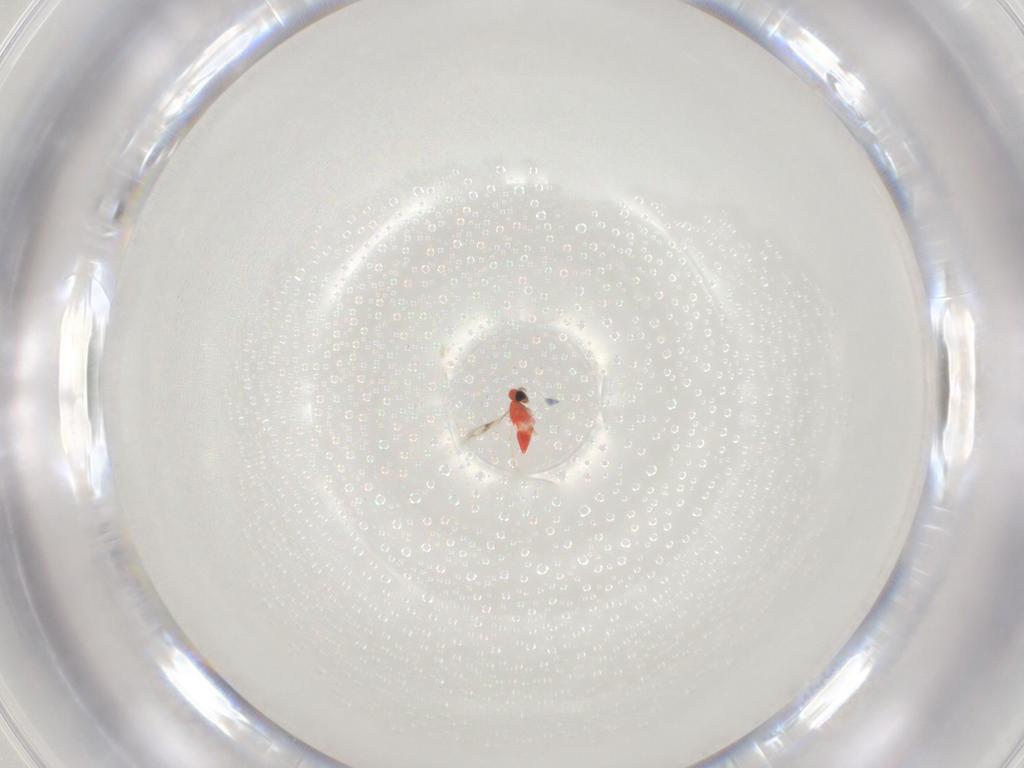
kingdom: Animalia
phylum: Arthropoda
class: Insecta
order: Hymenoptera
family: Trichogrammatidae
